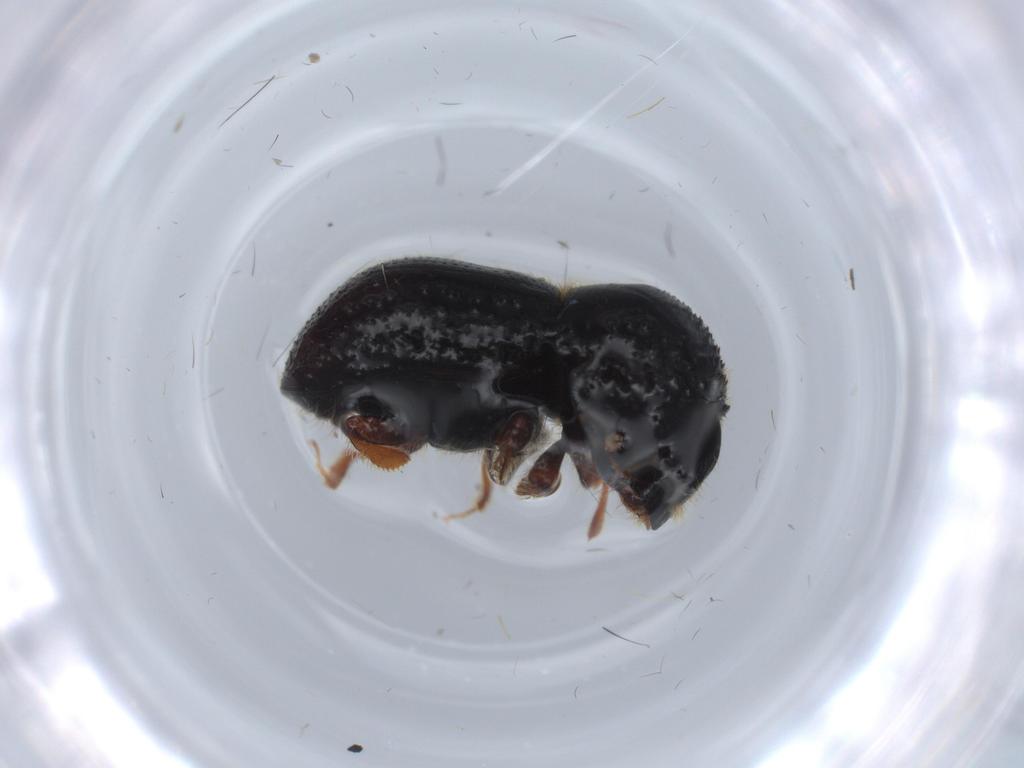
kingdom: Animalia
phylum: Arthropoda
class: Insecta
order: Coleoptera
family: Curculionidae
